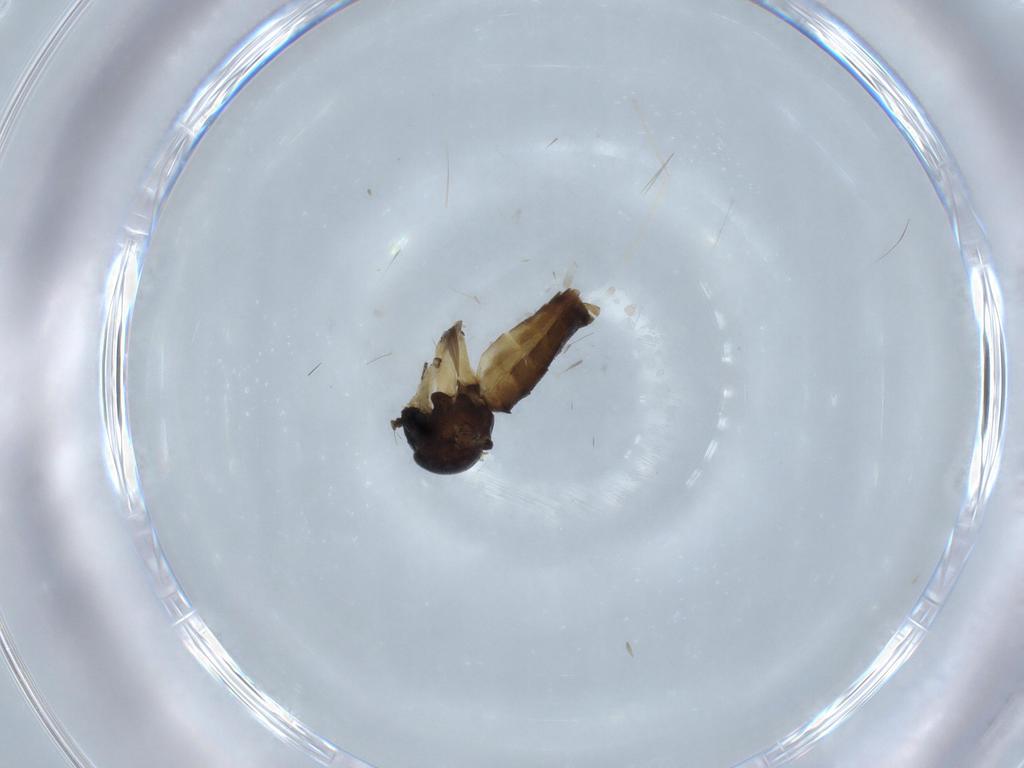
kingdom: Animalia
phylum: Arthropoda
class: Insecta
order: Diptera
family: Cecidomyiidae
